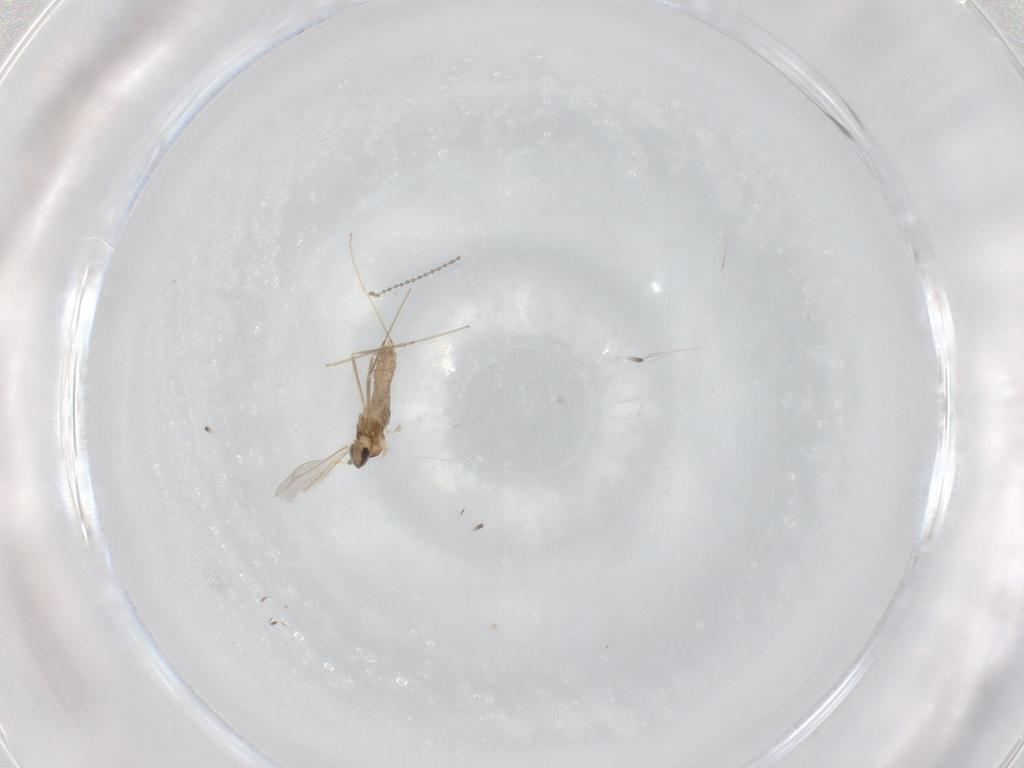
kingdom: Animalia
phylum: Arthropoda
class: Insecta
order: Diptera
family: Cecidomyiidae
